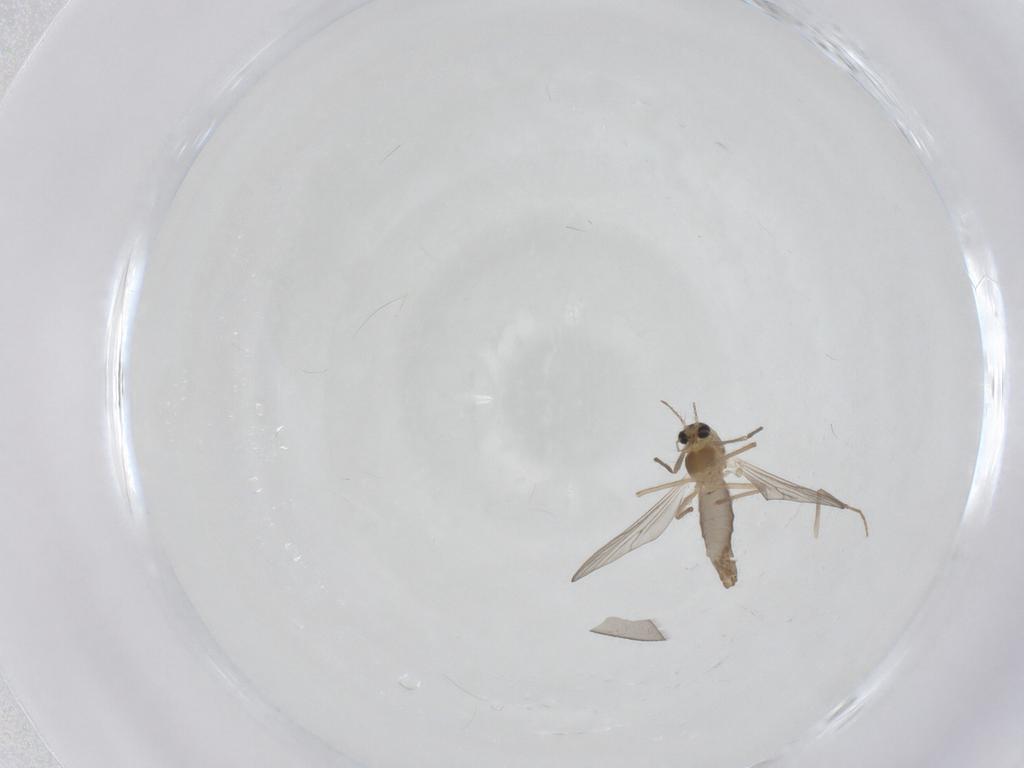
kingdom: Animalia
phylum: Arthropoda
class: Insecta
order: Diptera
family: Chironomidae
